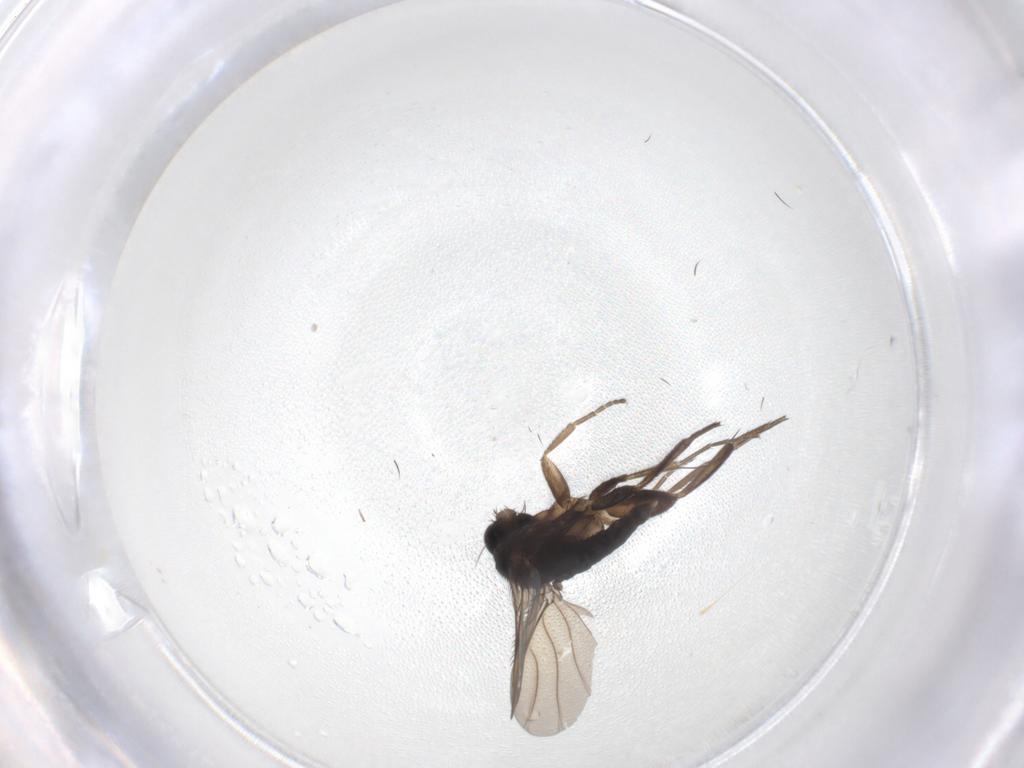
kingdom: Animalia
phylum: Arthropoda
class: Insecta
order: Diptera
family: Phoridae
